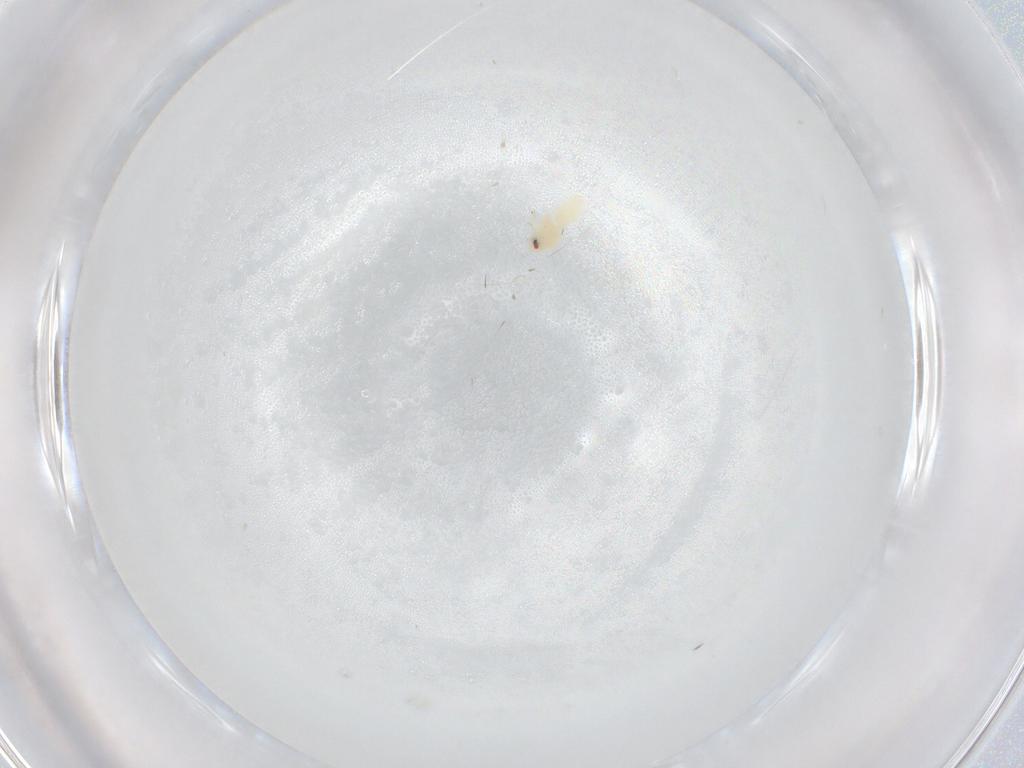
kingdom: Animalia
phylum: Arthropoda
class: Insecta
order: Hemiptera
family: Aleyrodidae
